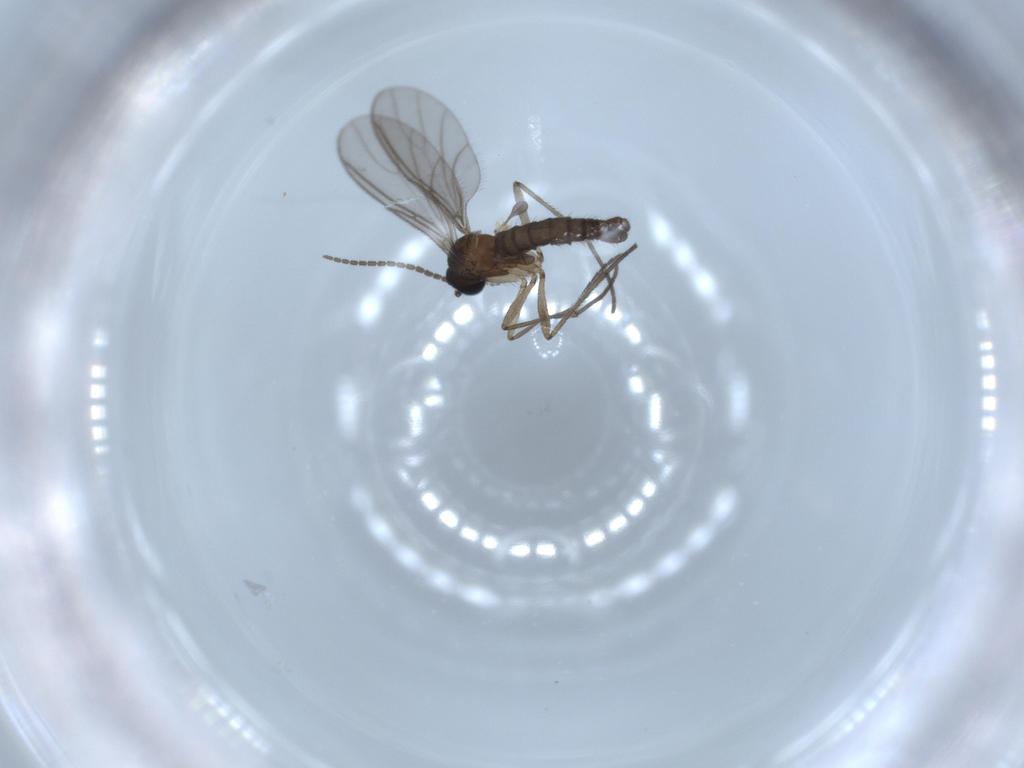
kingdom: Animalia
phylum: Arthropoda
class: Insecta
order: Diptera
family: Sciaridae
